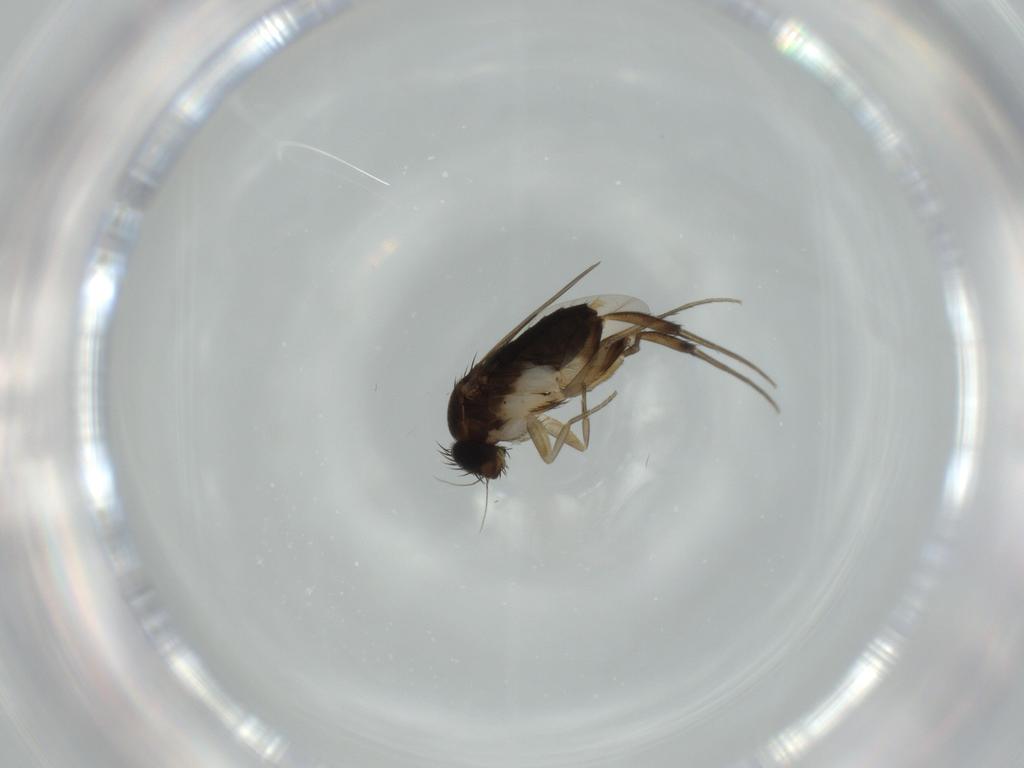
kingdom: Animalia
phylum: Arthropoda
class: Insecta
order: Diptera
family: Phoridae
